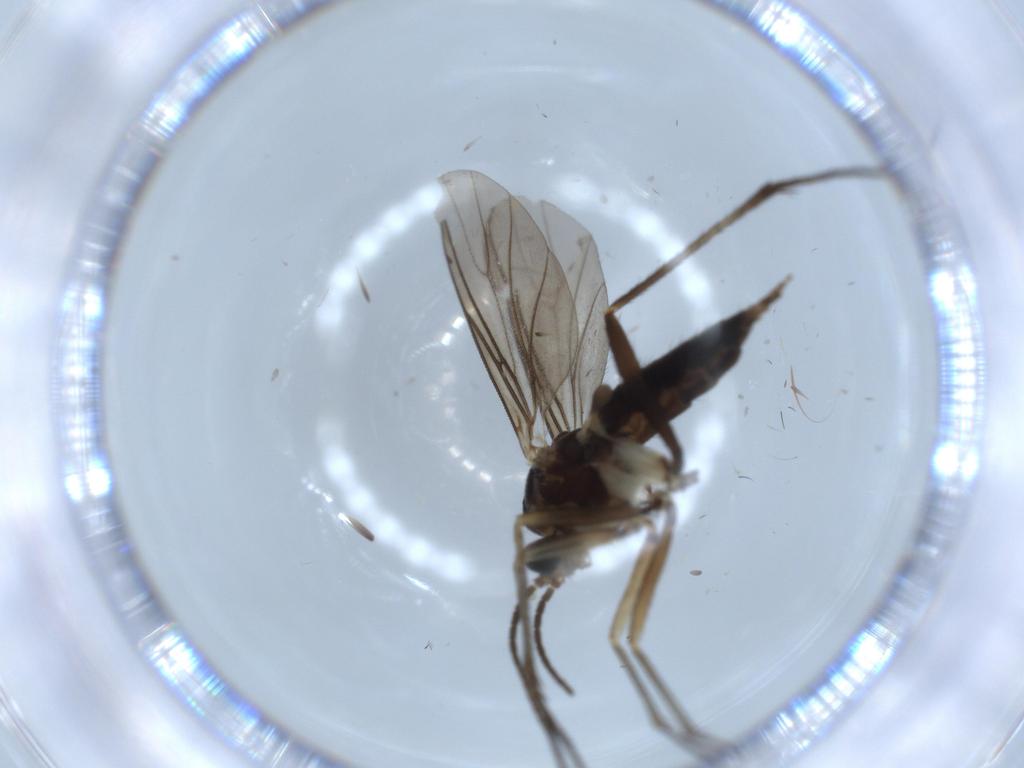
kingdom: Animalia
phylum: Arthropoda
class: Insecta
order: Diptera
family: Sciaridae
